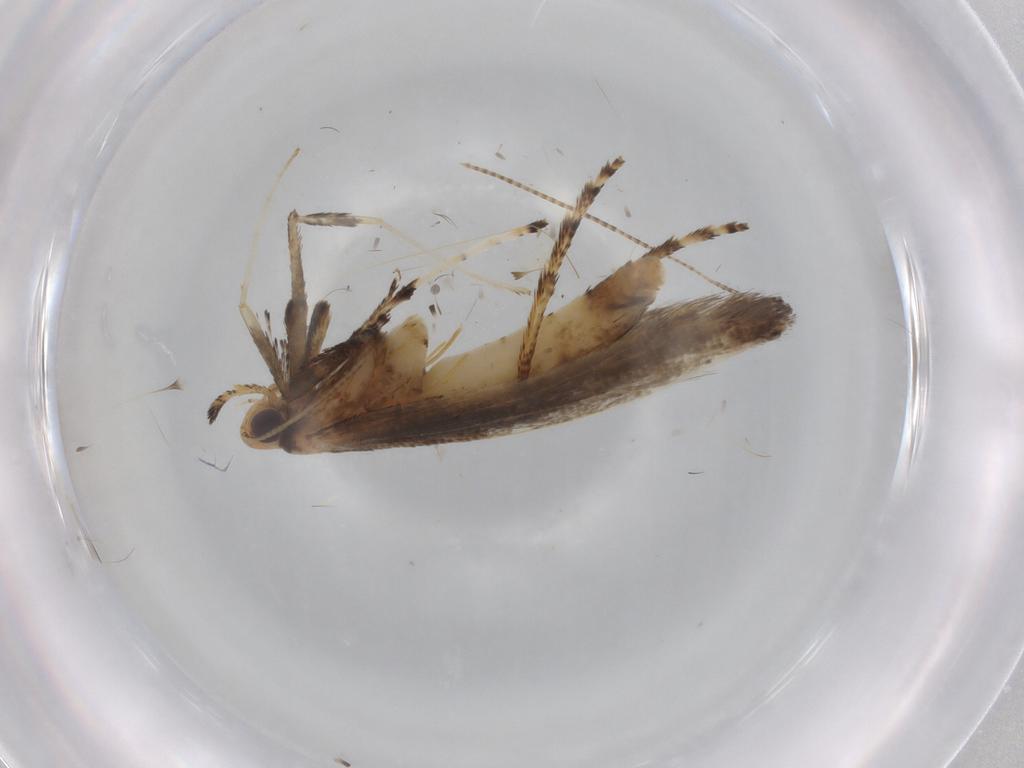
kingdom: Animalia
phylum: Arthropoda
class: Insecta
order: Lepidoptera
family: Gracillariidae
